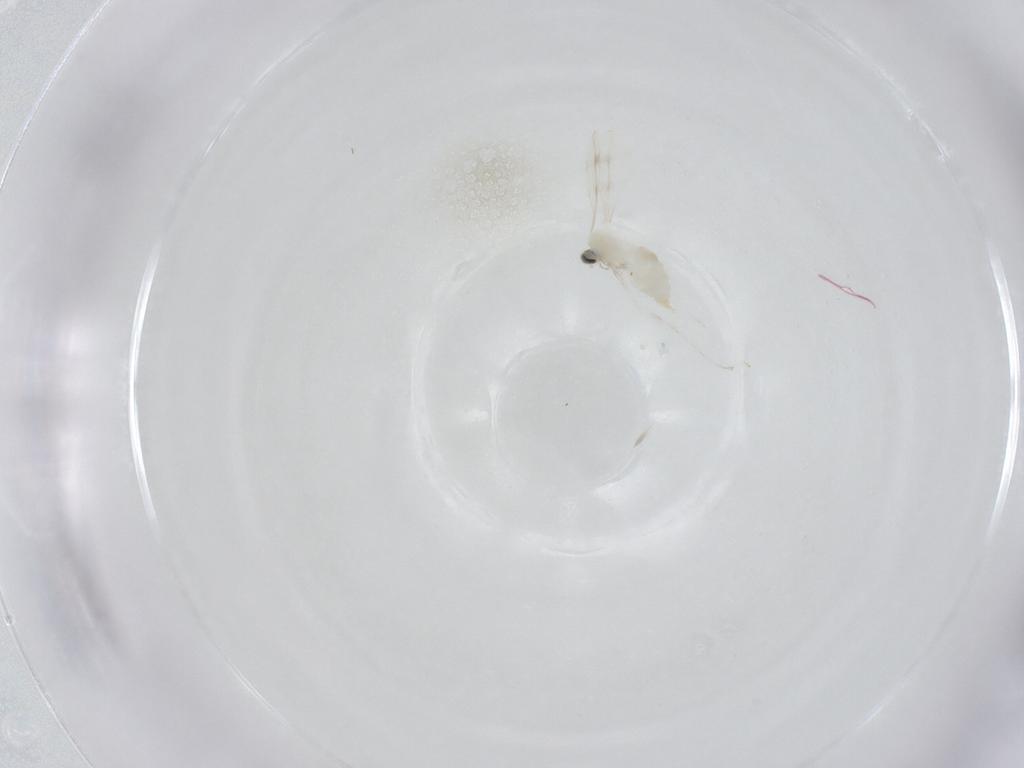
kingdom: Animalia
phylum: Arthropoda
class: Insecta
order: Diptera
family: Cecidomyiidae
